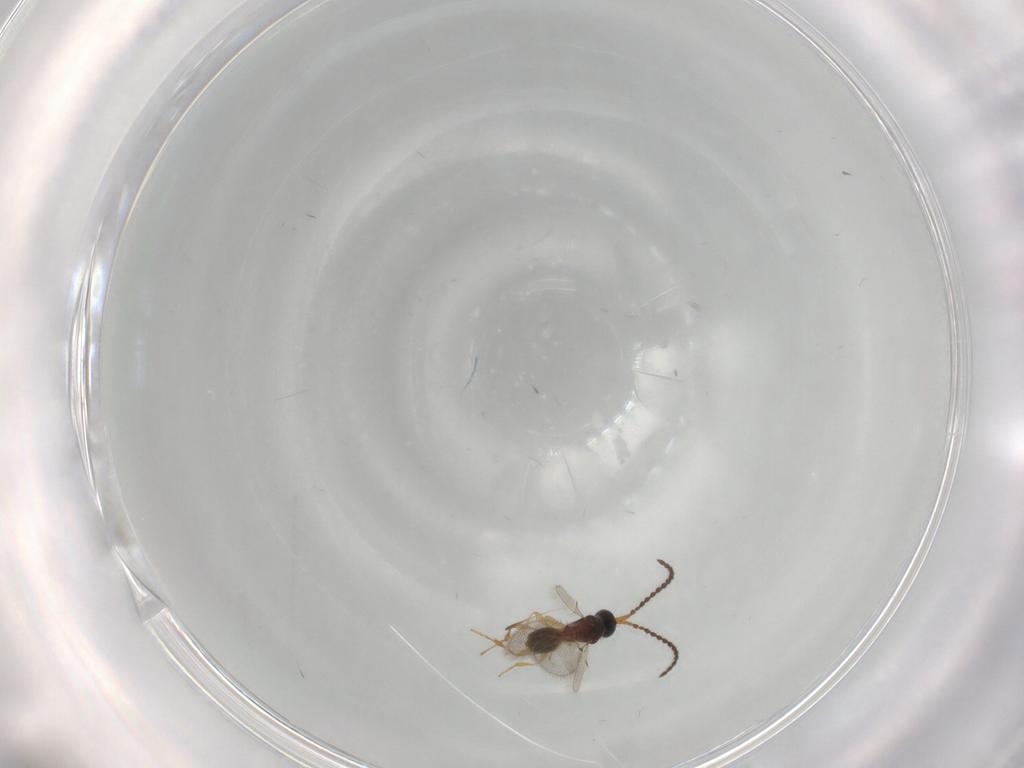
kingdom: Animalia
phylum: Arthropoda
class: Insecta
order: Hymenoptera
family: Diapriidae
